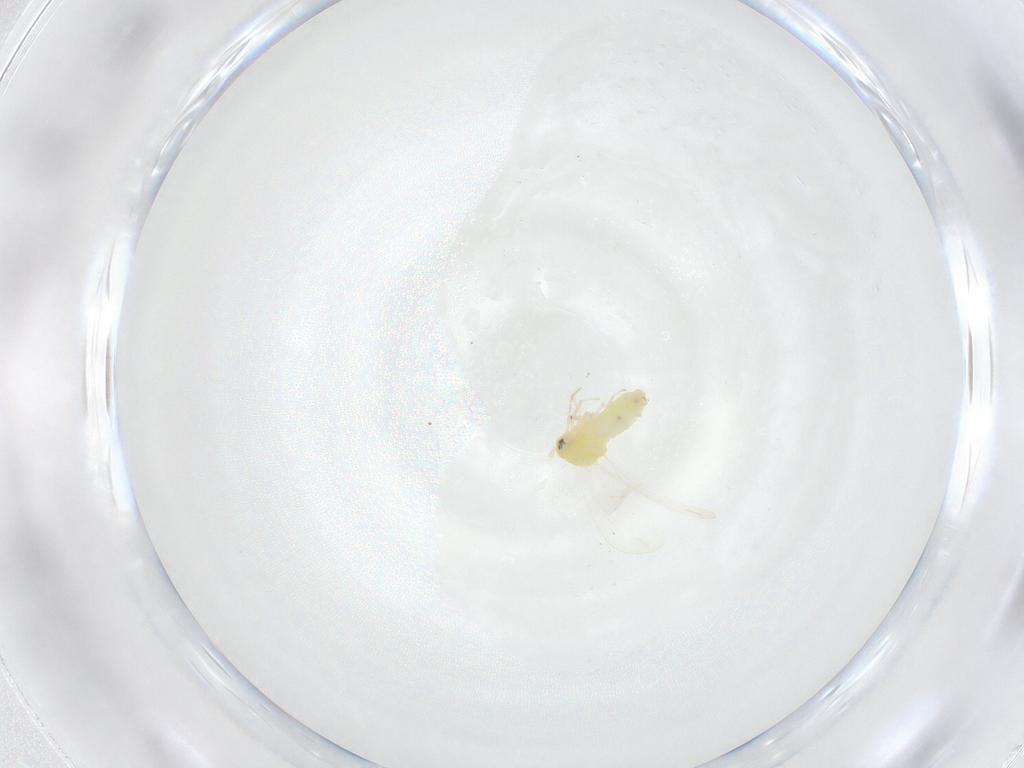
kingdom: Animalia
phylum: Arthropoda
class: Insecta
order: Hemiptera
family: Aleyrodidae
